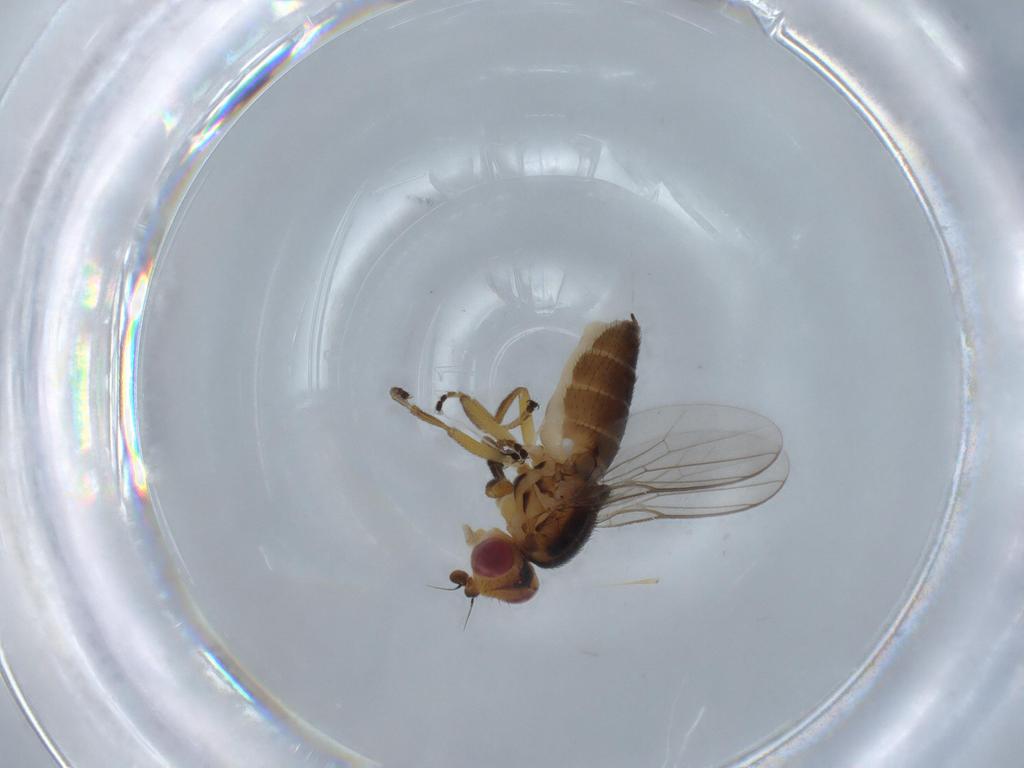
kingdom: Animalia
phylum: Arthropoda
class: Insecta
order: Diptera
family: Chloropidae
